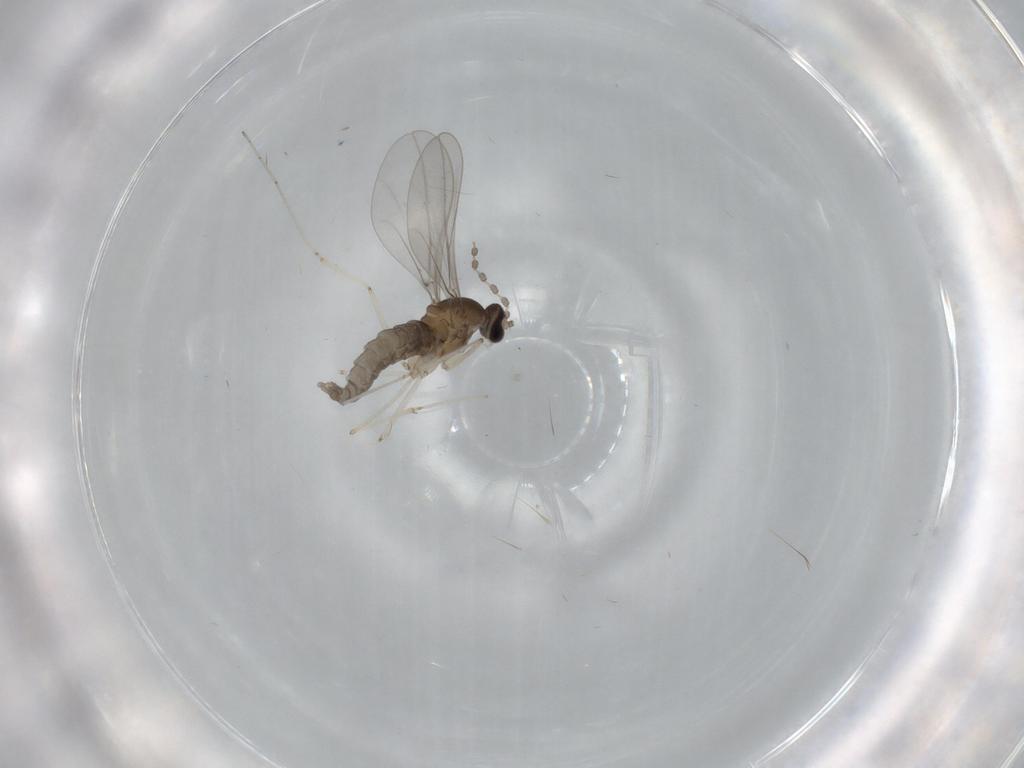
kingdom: Animalia
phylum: Arthropoda
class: Insecta
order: Diptera
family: Cecidomyiidae
